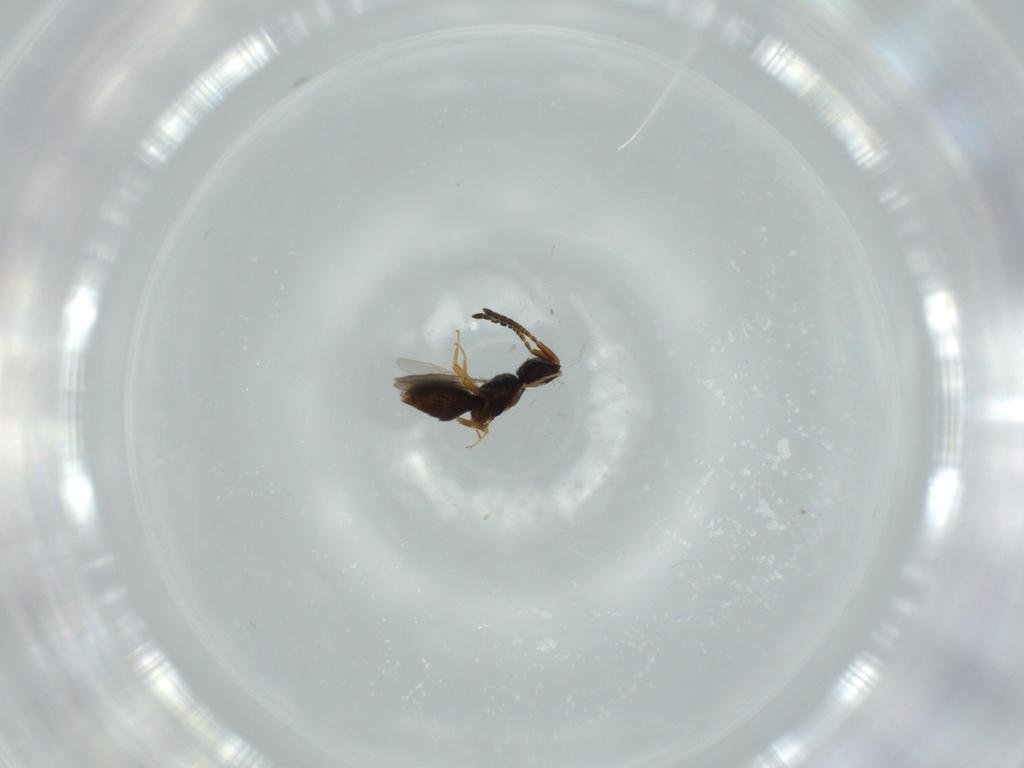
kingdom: Animalia
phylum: Arthropoda
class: Insecta
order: Hymenoptera
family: Ceraphronidae
